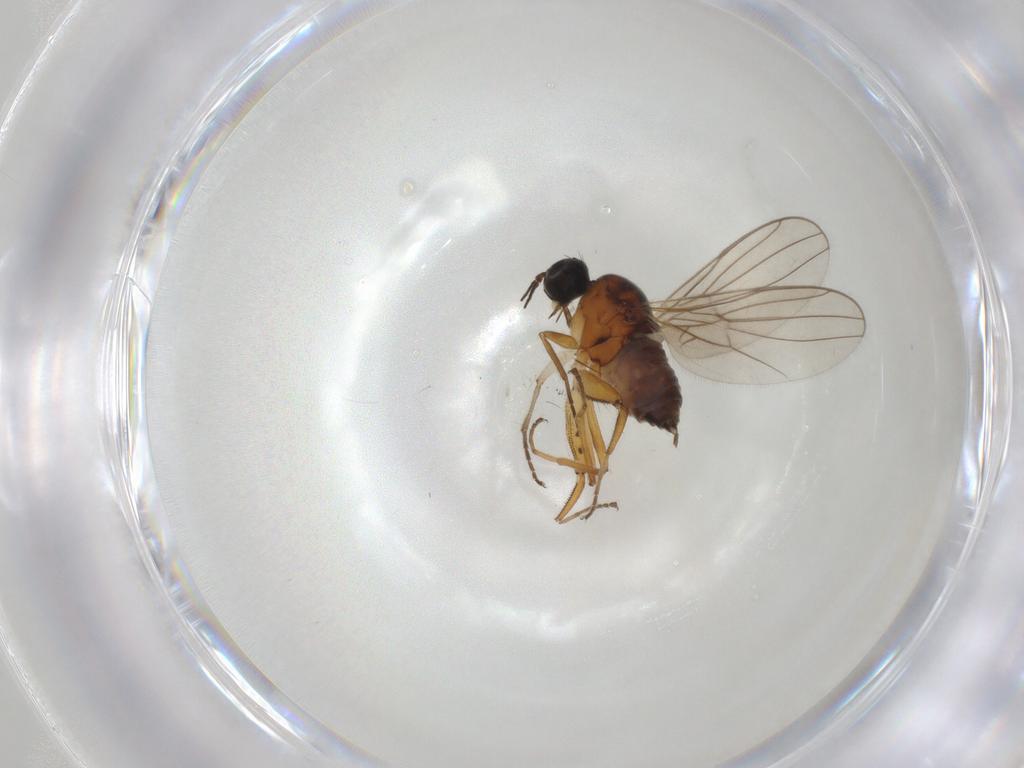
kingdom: Animalia
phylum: Arthropoda
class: Insecta
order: Diptera
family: Hybotidae
